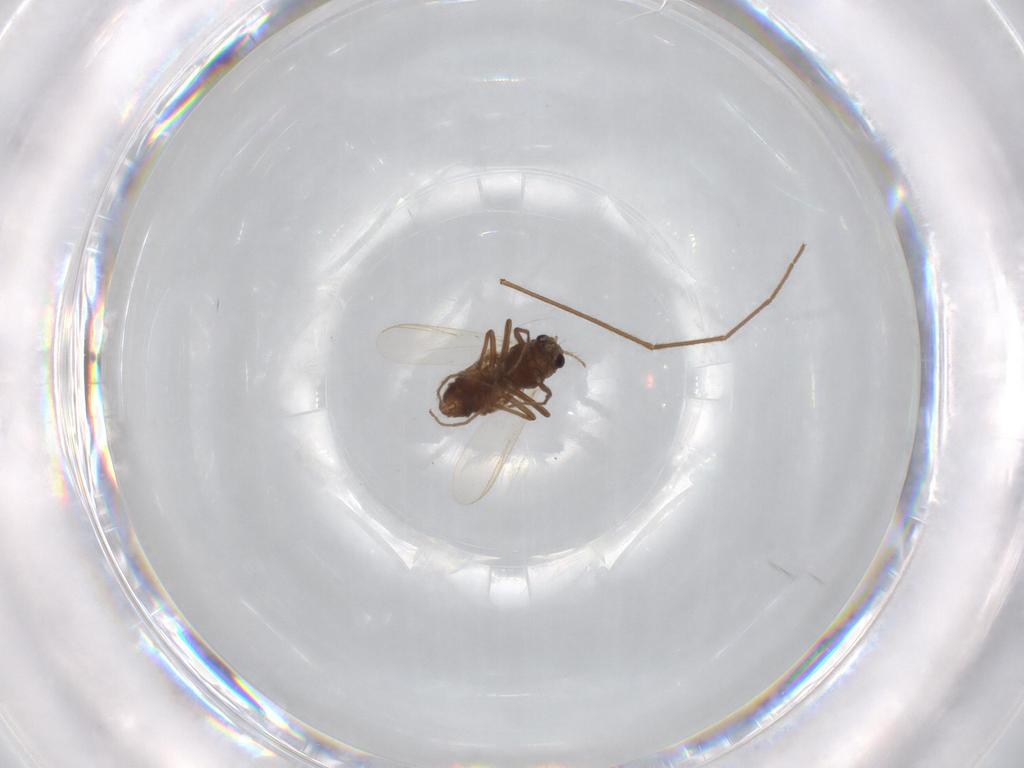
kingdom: Animalia
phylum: Arthropoda
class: Insecta
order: Diptera
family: Chironomidae
